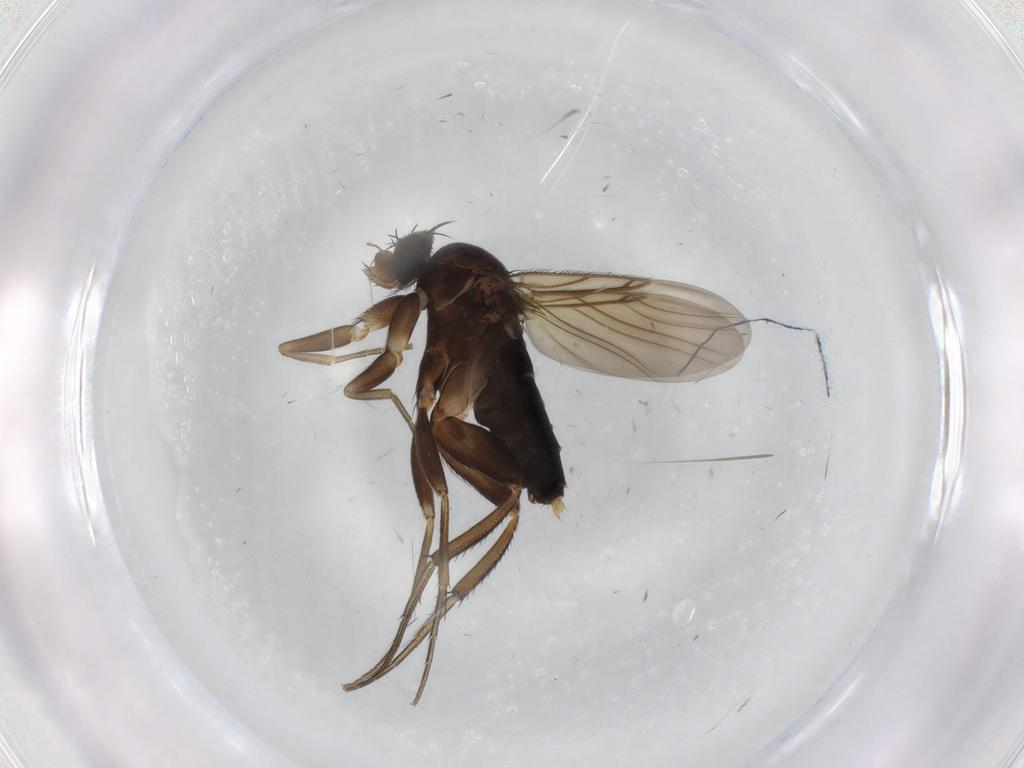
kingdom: Animalia
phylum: Arthropoda
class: Insecta
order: Diptera
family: Phoridae
